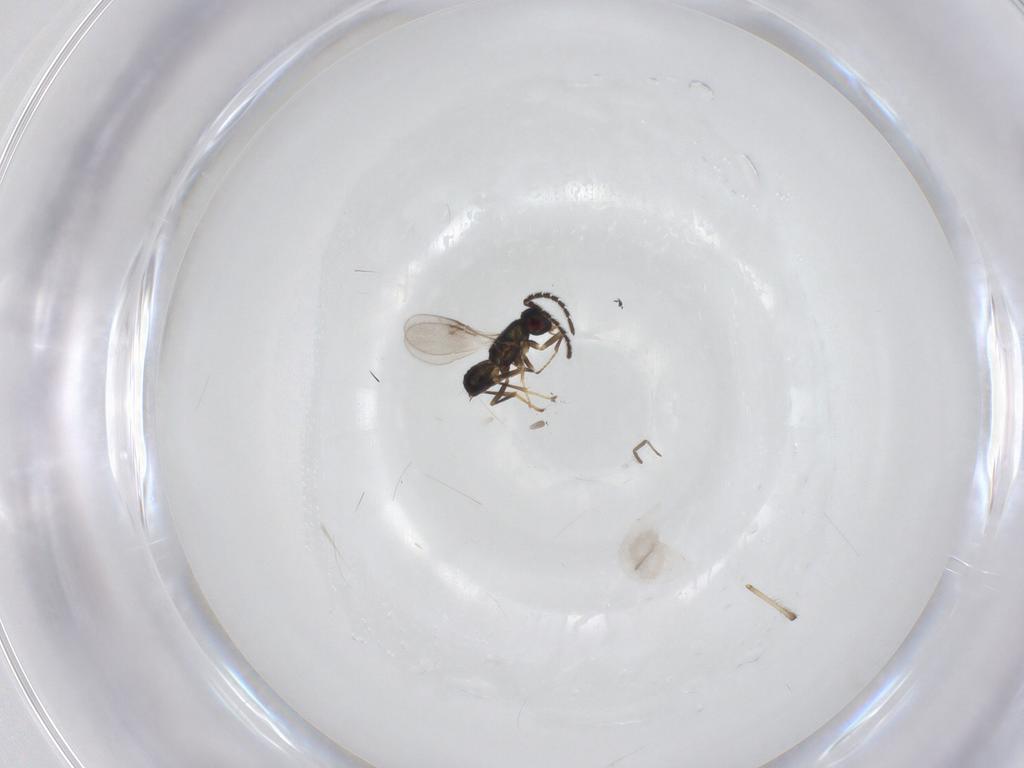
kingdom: Animalia
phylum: Arthropoda
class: Insecta
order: Hymenoptera
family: Encyrtidae
